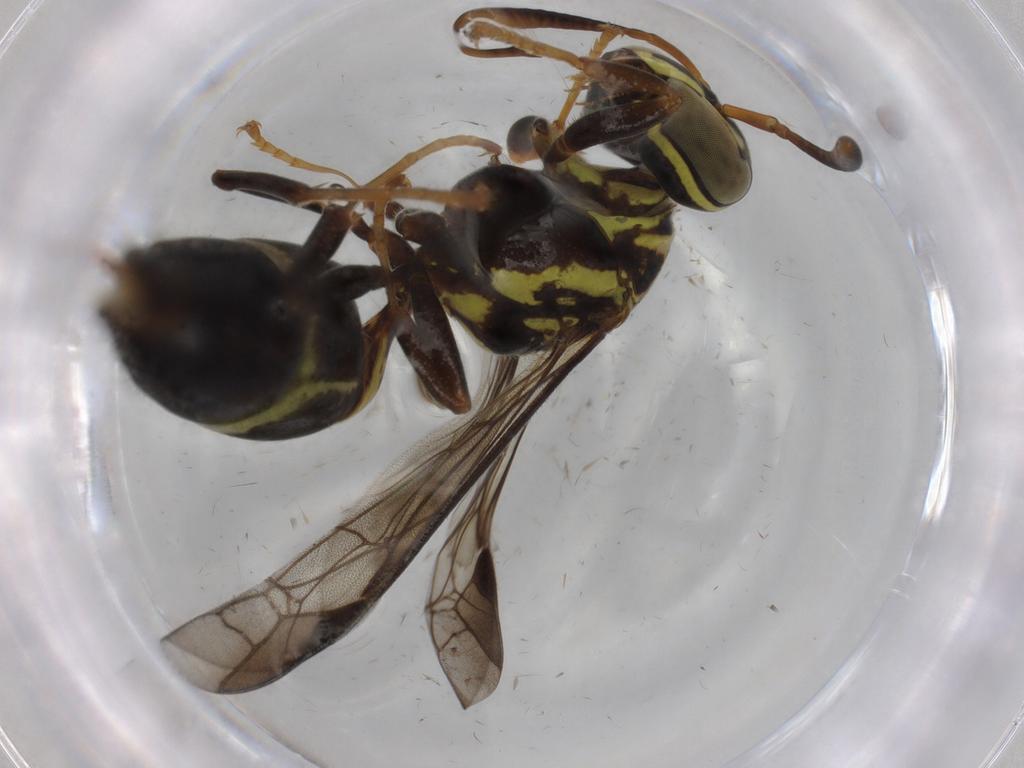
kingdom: Animalia
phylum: Arthropoda
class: Insecta
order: Hymenoptera
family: Vespidae
